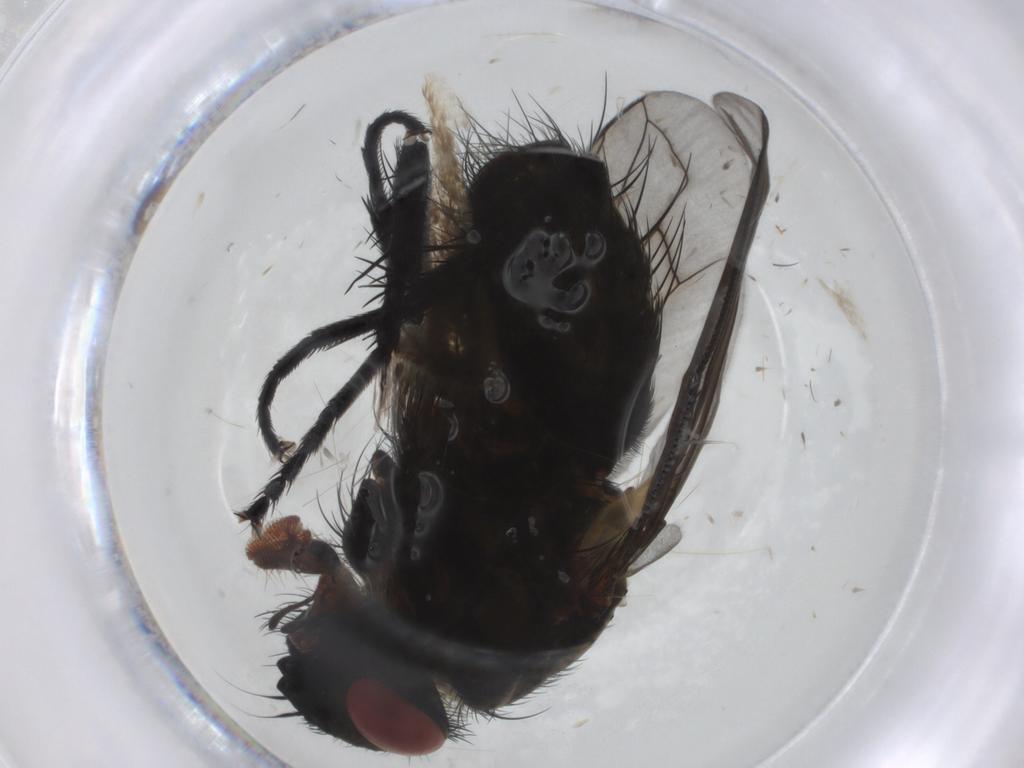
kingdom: Animalia
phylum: Arthropoda
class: Insecta
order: Diptera
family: Tachinidae
